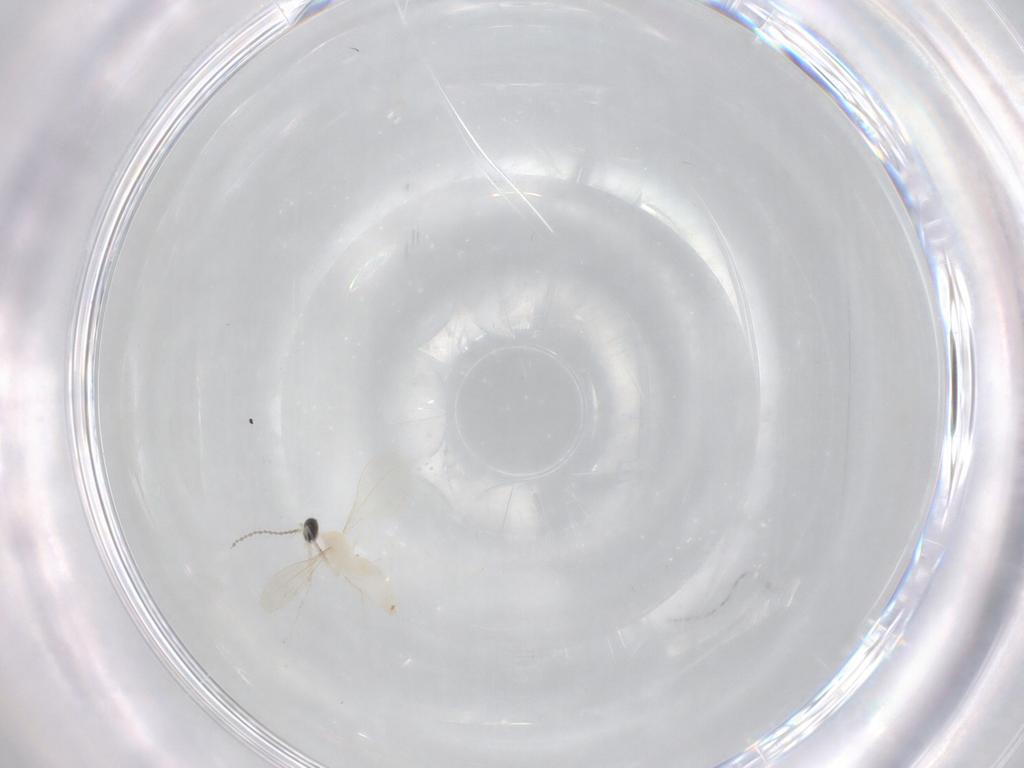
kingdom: Animalia
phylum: Arthropoda
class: Insecta
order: Diptera
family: Cecidomyiidae
